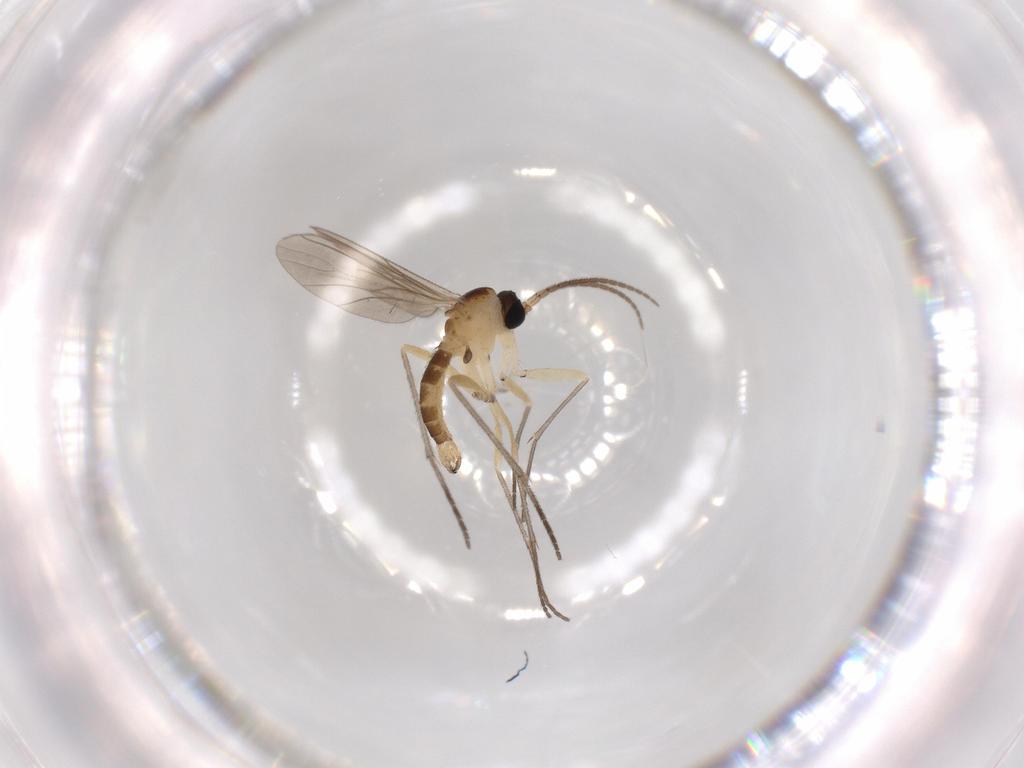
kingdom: Animalia
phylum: Arthropoda
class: Insecta
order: Diptera
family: Sciaridae
